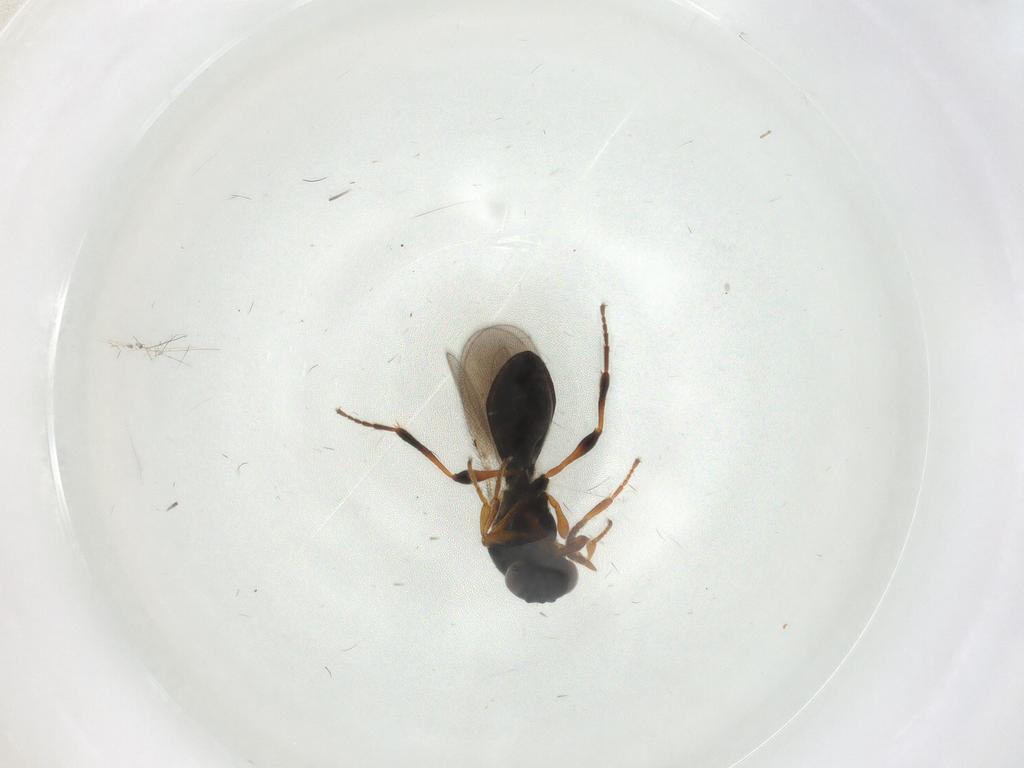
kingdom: Animalia
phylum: Arthropoda
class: Insecta
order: Hymenoptera
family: Platygastridae
